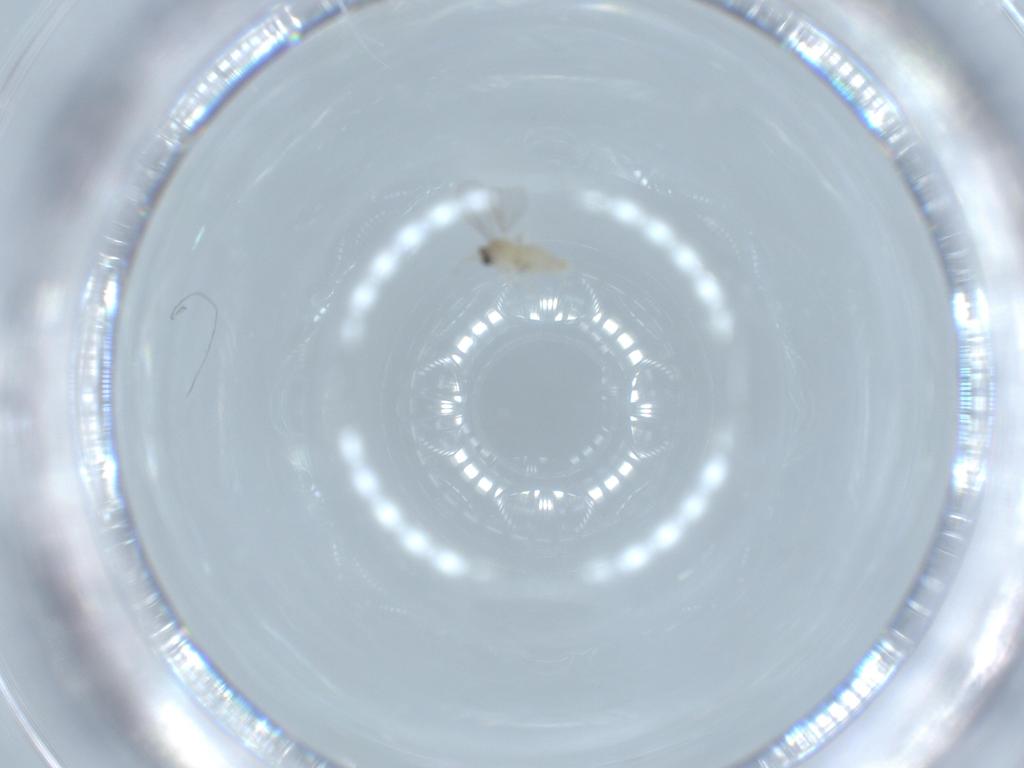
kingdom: Animalia
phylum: Arthropoda
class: Insecta
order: Diptera
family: Cecidomyiidae
